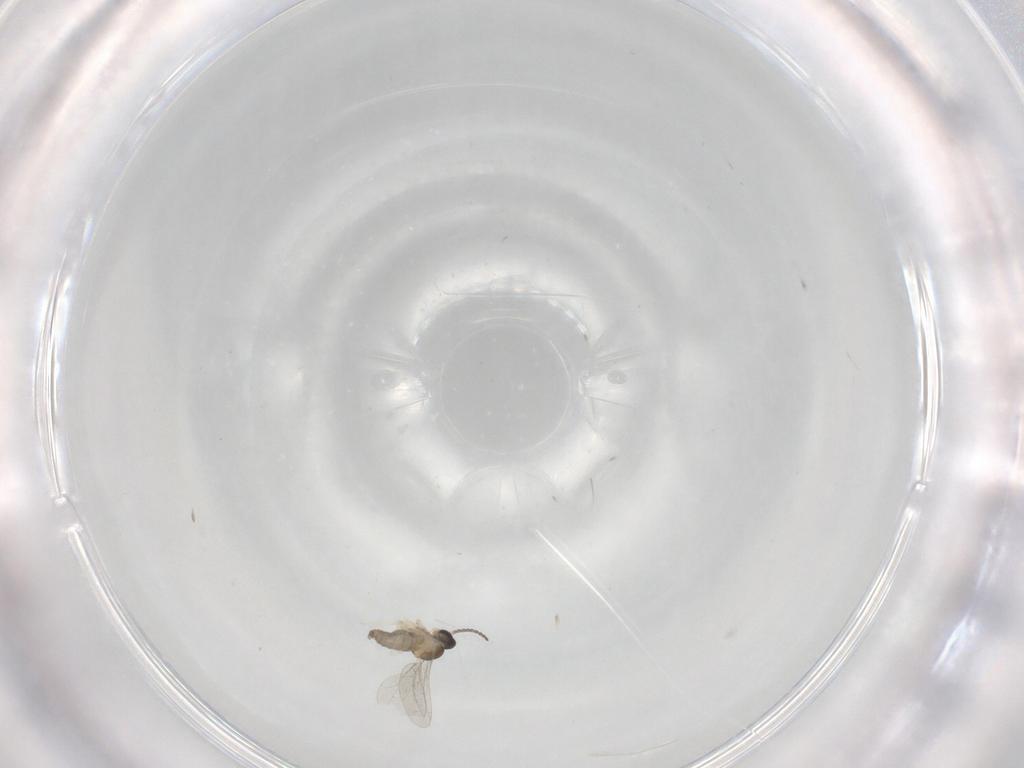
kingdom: Animalia
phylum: Arthropoda
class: Insecta
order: Diptera
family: Cecidomyiidae
